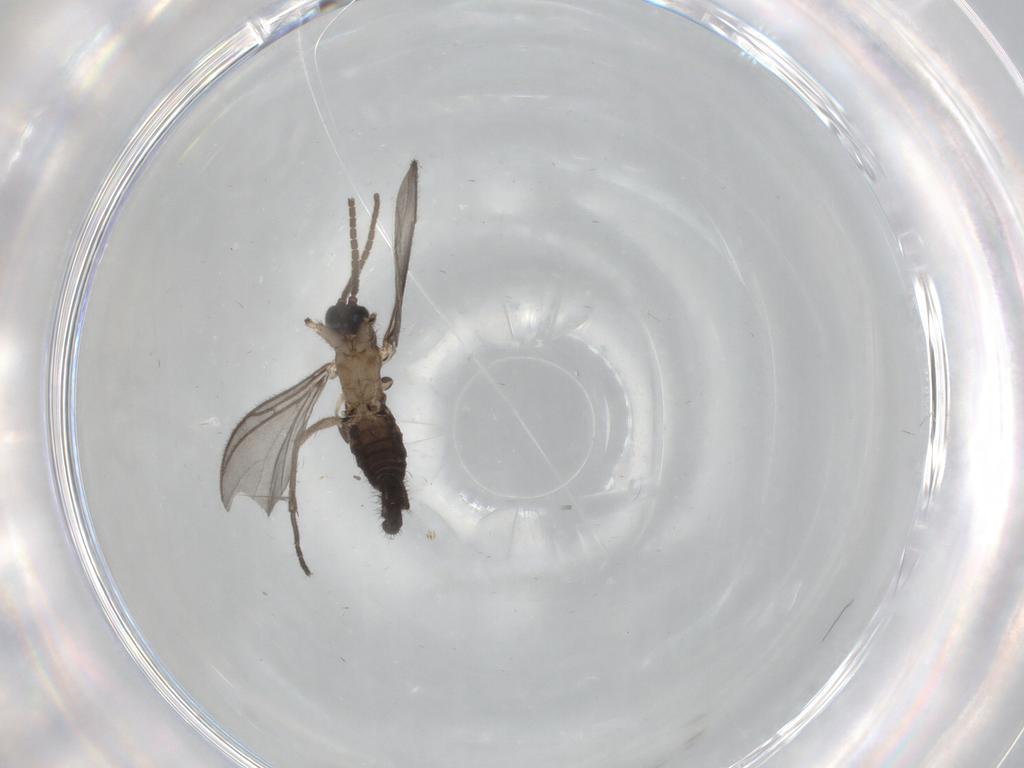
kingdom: Animalia
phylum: Arthropoda
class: Insecta
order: Diptera
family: Sciaridae
